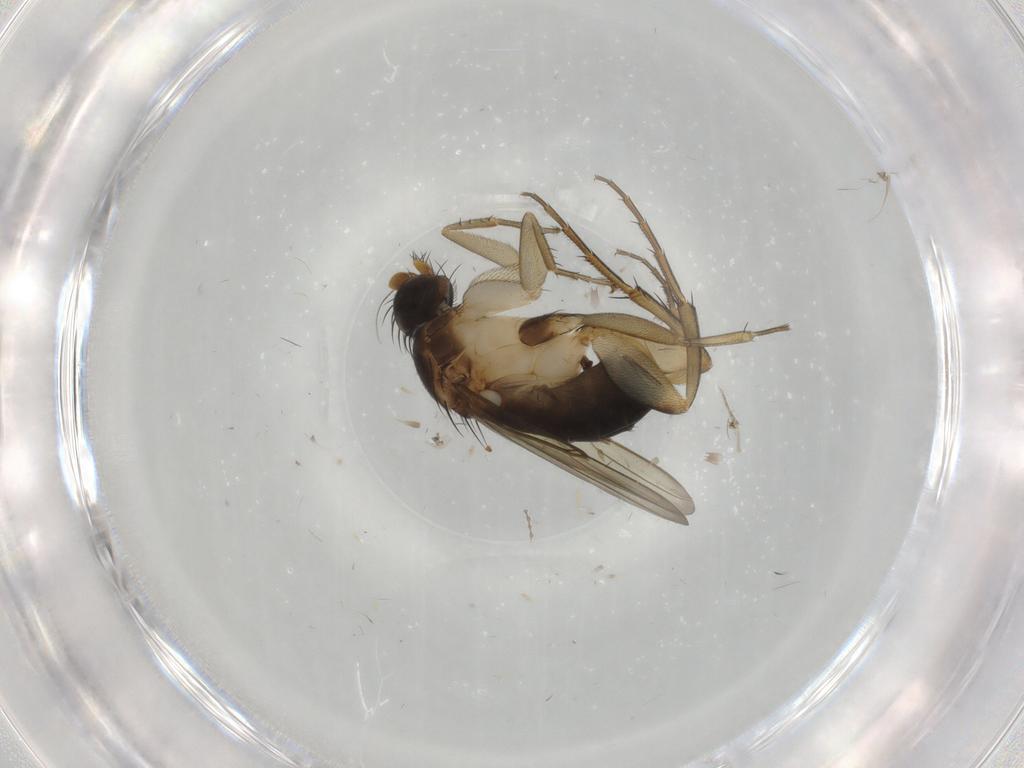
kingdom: Animalia
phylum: Arthropoda
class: Insecta
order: Diptera
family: Phoridae
